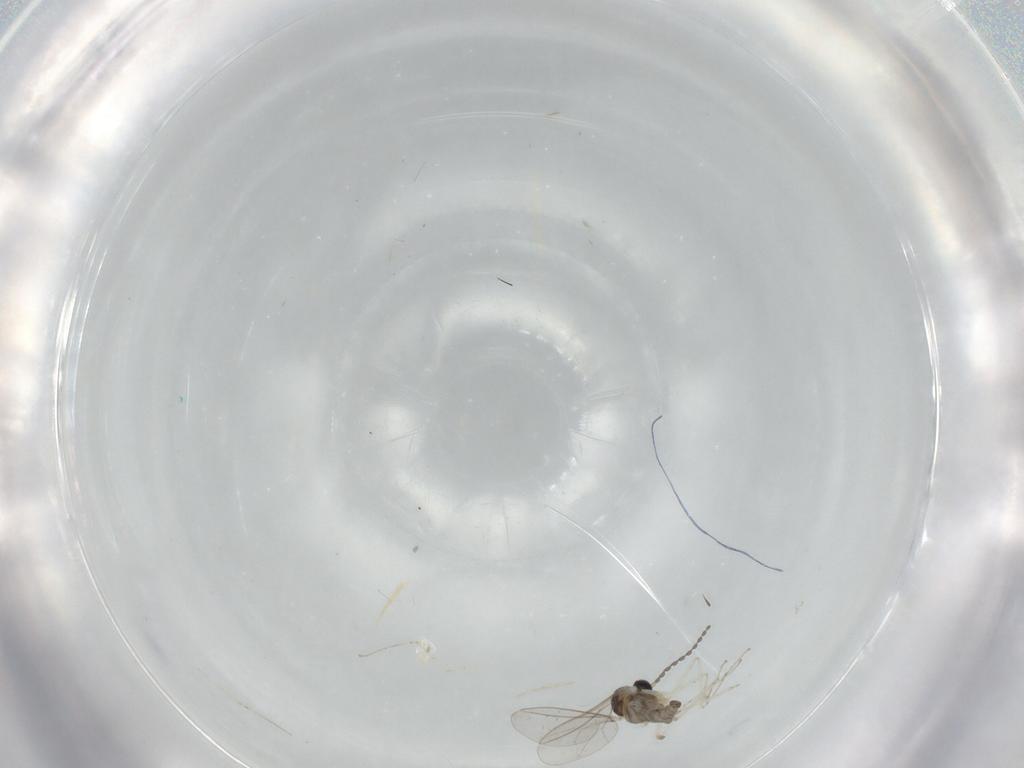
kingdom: Animalia
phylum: Arthropoda
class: Insecta
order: Diptera
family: Cecidomyiidae
